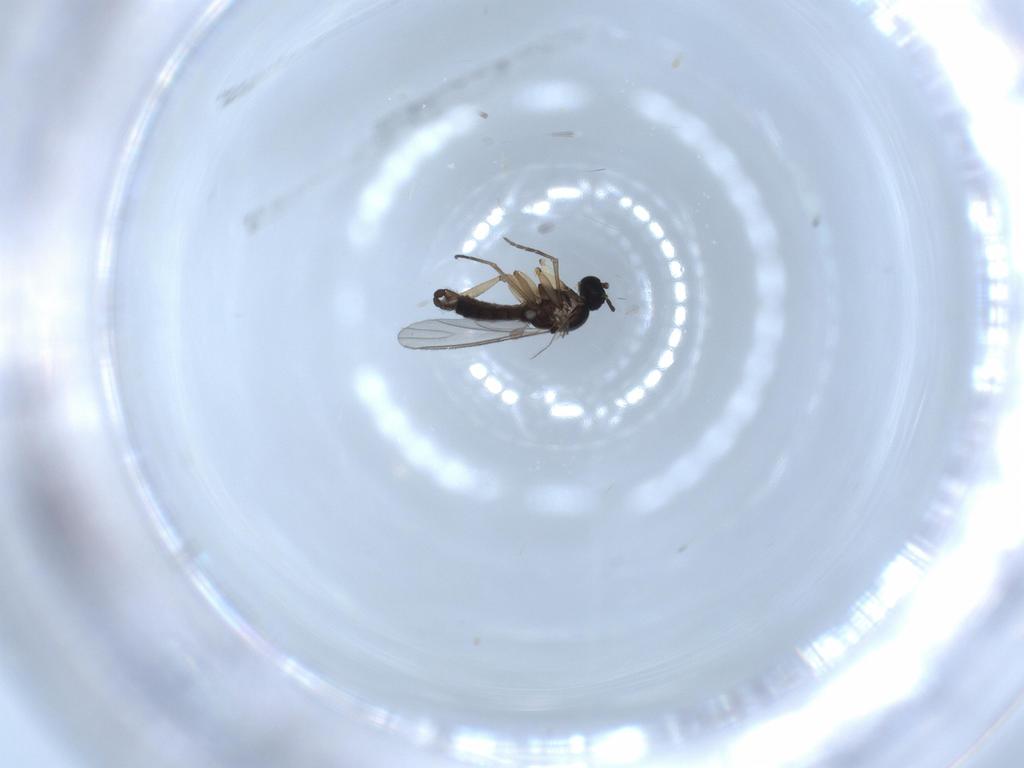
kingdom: Animalia
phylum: Arthropoda
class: Insecta
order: Diptera
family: Sciaridae
